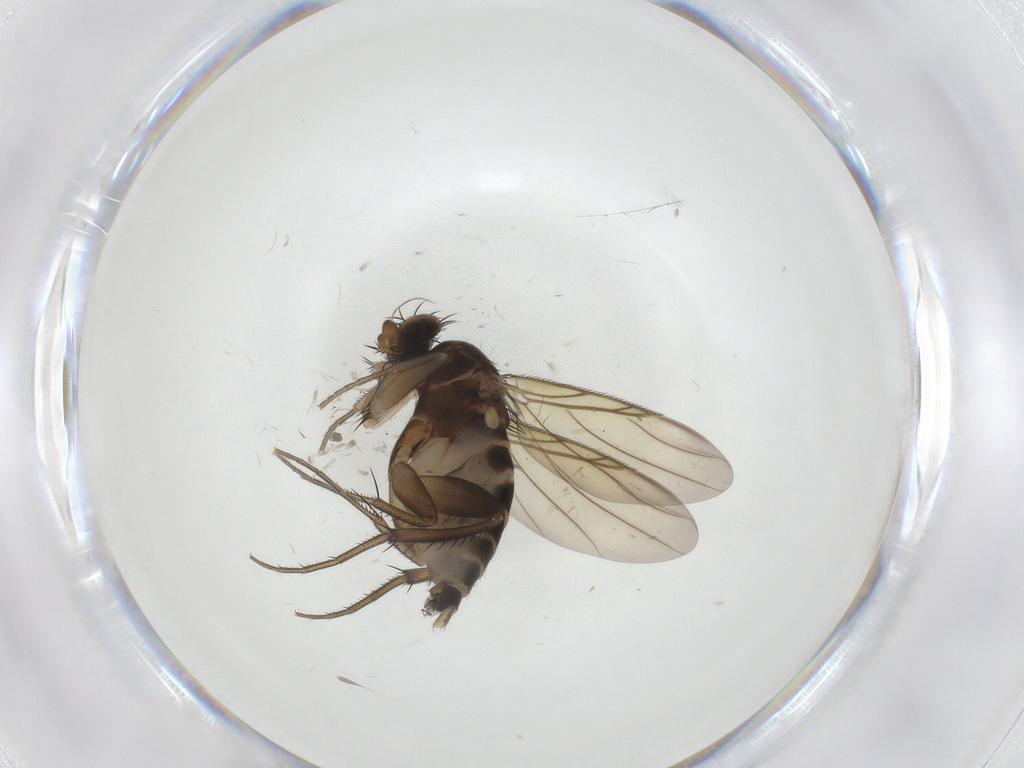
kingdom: Animalia
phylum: Arthropoda
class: Insecta
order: Diptera
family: Phoridae
